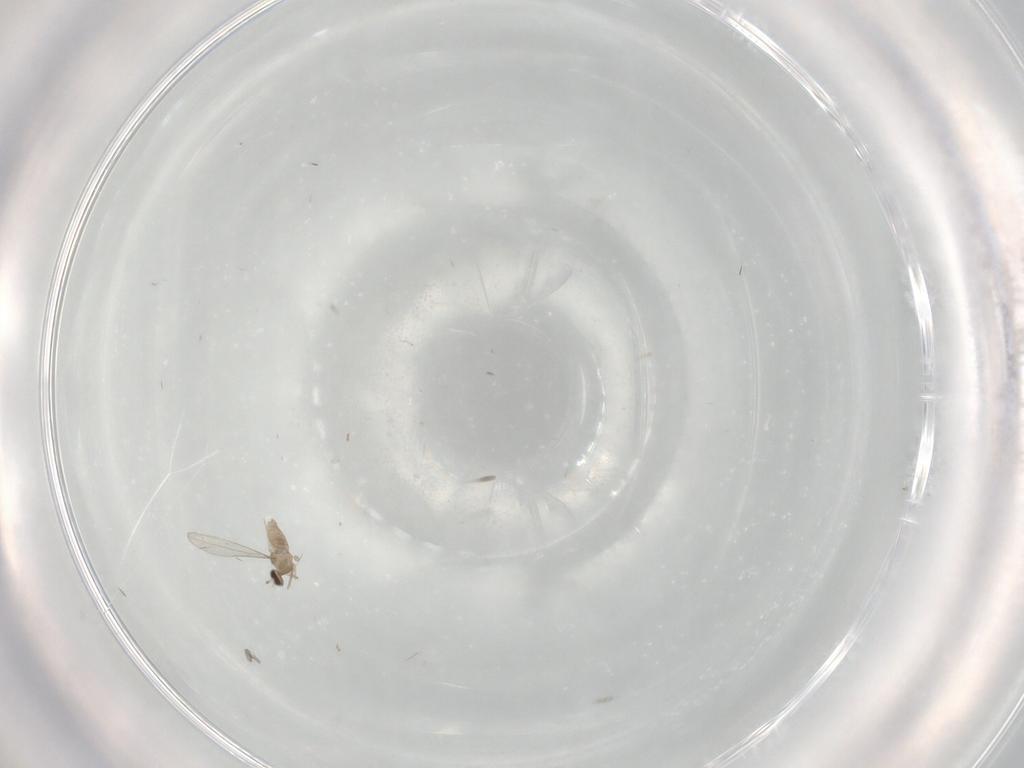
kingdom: Animalia
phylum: Arthropoda
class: Insecta
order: Diptera
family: Cecidomyiidae
